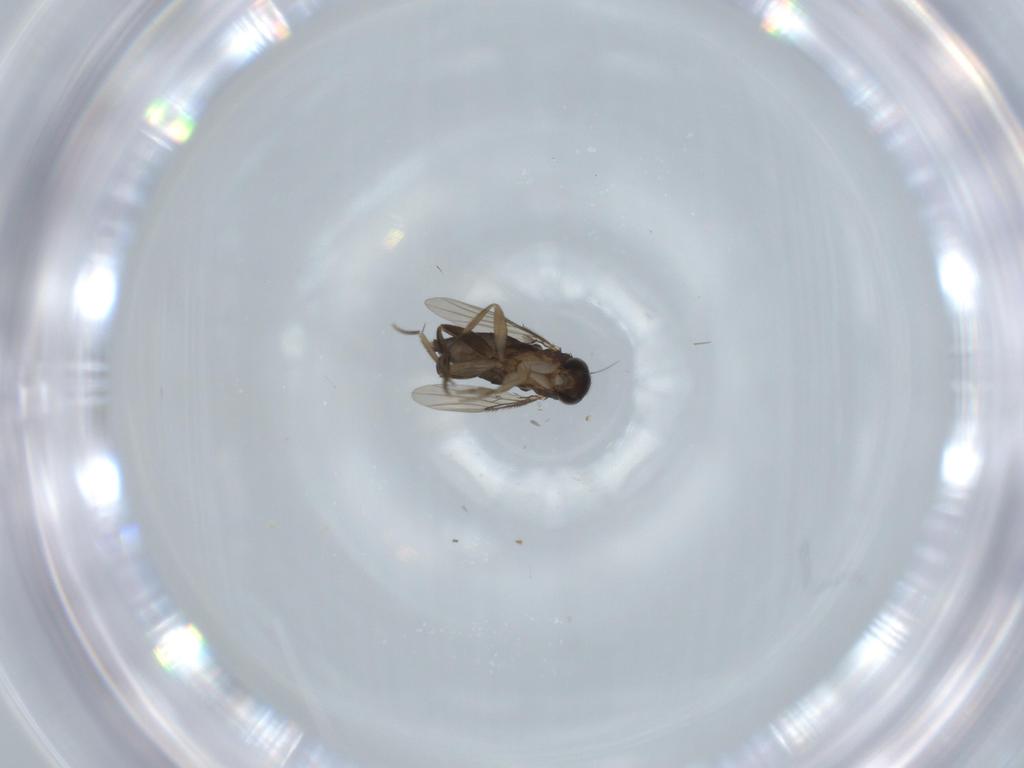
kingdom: Animalia
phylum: Arthropoda
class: Insecta
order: Diptera
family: Phoridae
